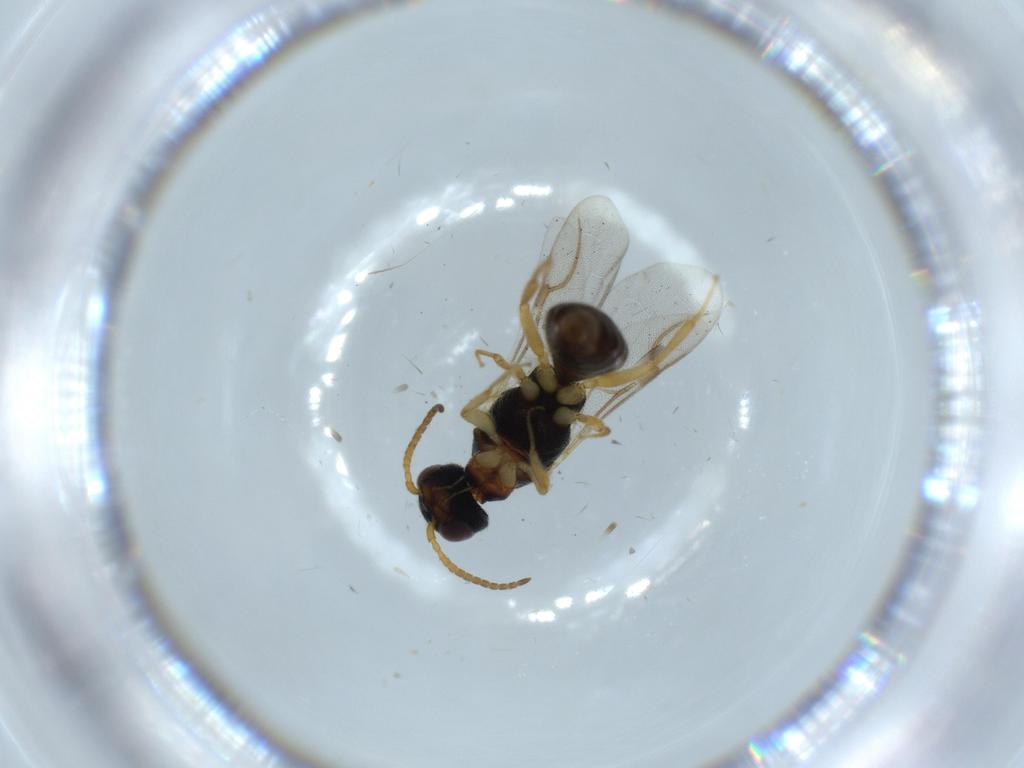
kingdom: Animalia
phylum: Arthropoda
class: Insecta
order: Hymenoptera
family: Bethylidae
